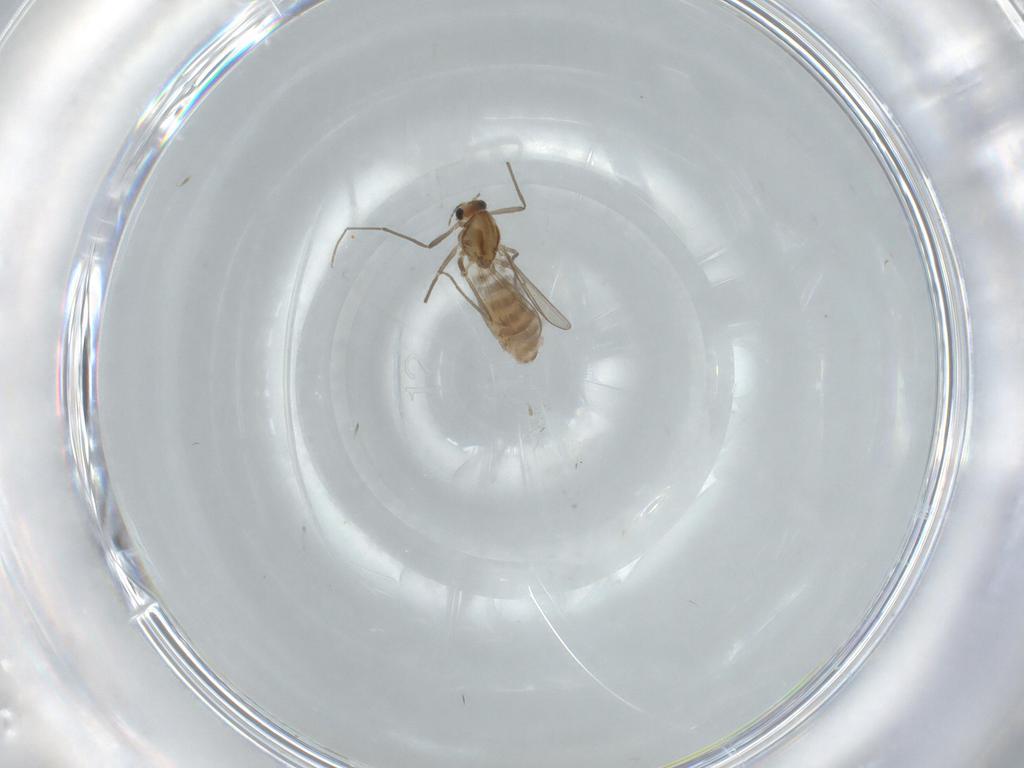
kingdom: Animalia
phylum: Arthropoda
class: Insecta
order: Diptera
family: Chironomidae
